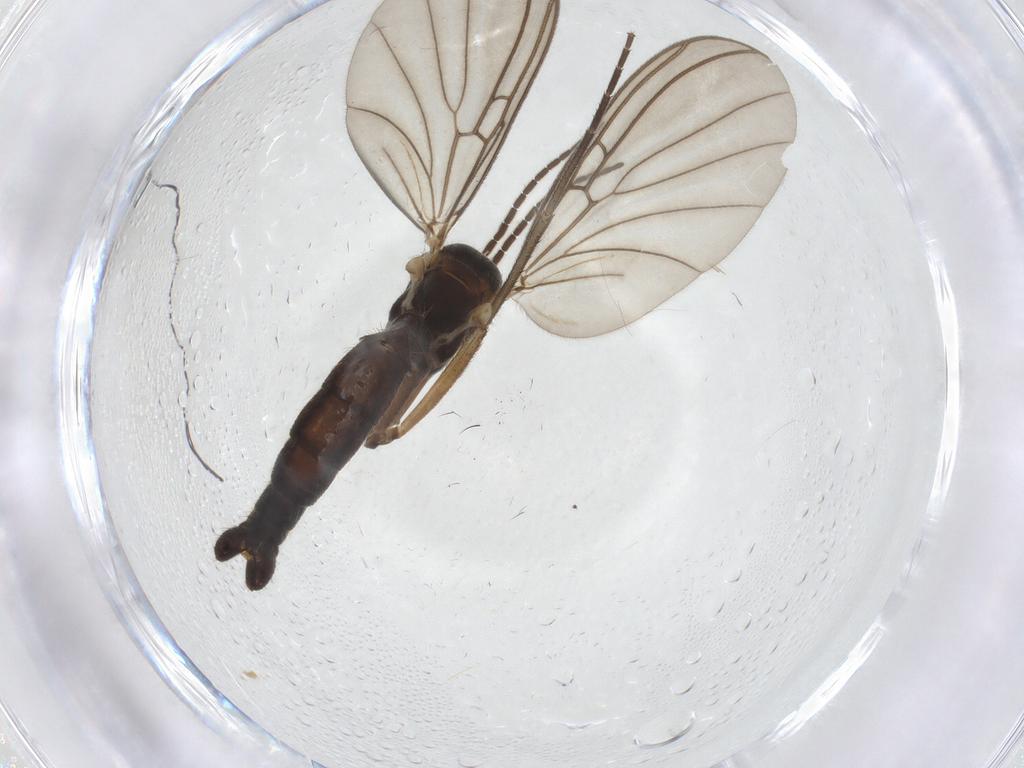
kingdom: Animalia
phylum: Arthropoda
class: Insecta
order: Diptera
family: Mycetophilidae
